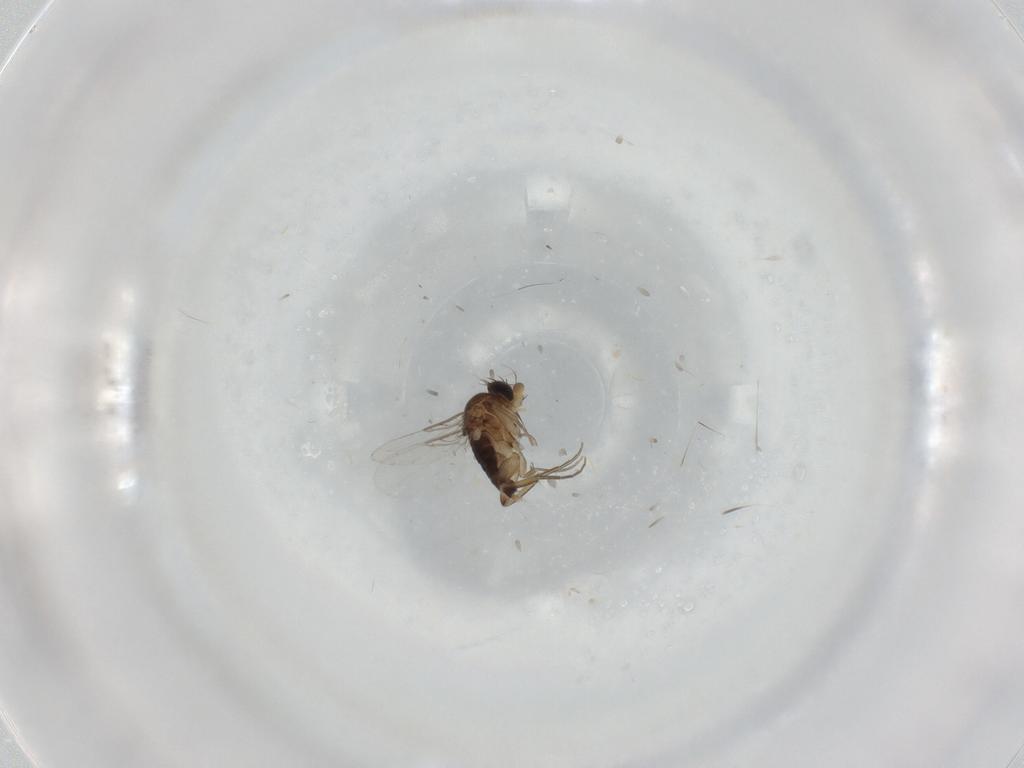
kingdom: Animalia
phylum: Arthropoda
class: Insecta
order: Diptera
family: Phoridae
